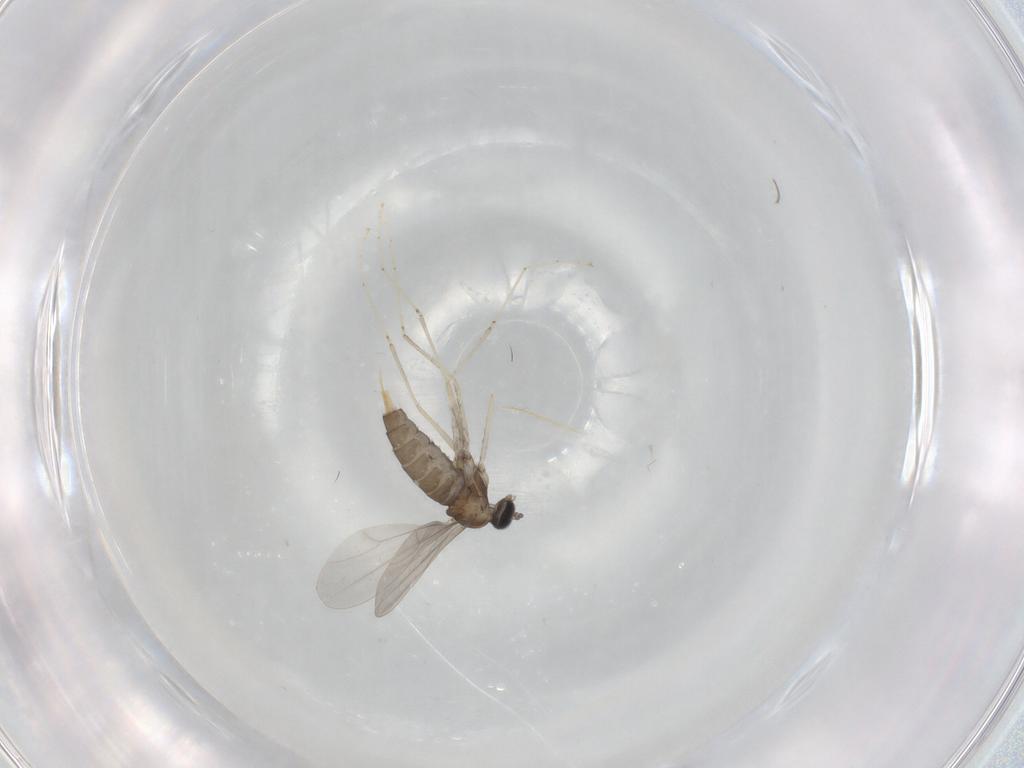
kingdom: Animalia
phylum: Arthropoda
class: Insecta
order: Diptera
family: Cecidomyiidae
